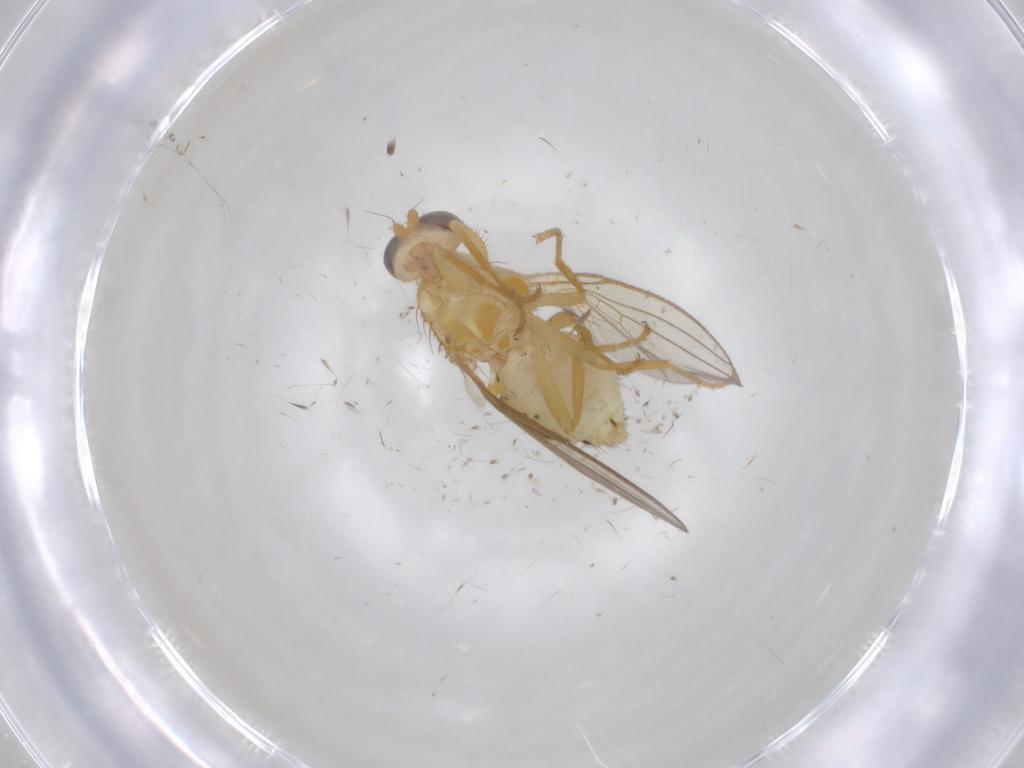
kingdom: Animalia
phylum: Arthropoda
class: Insecta
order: Diptera
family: Chyromyidae
